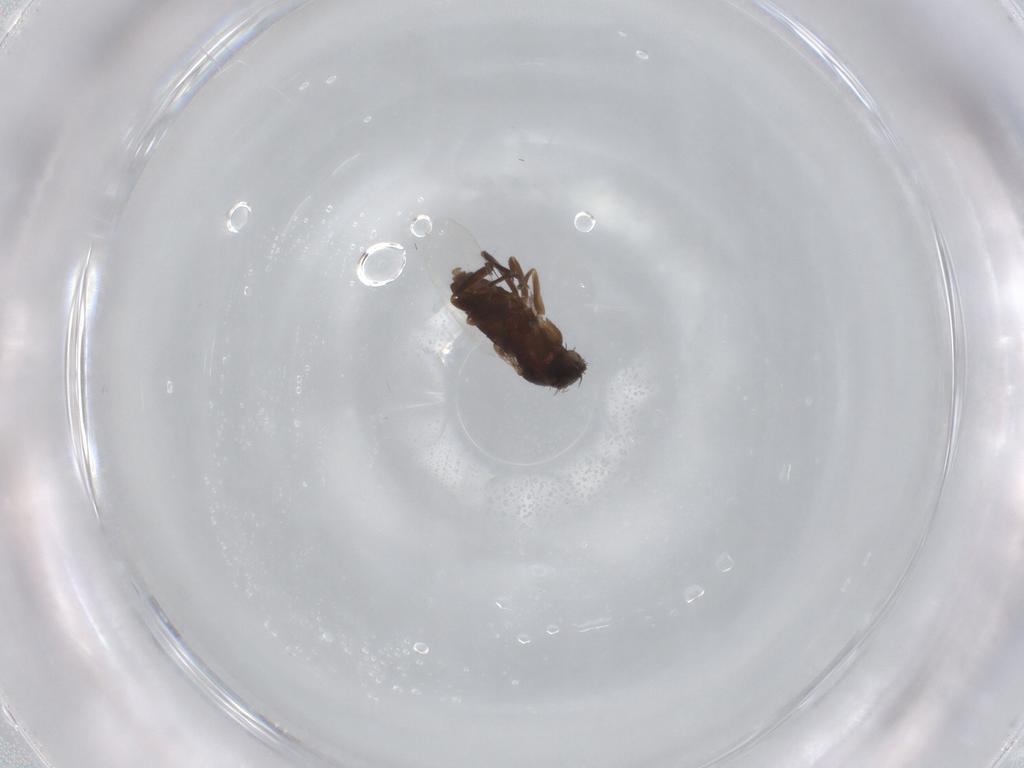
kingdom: Animalia
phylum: Arthropoda
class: Insecta
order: Diptera
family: Phoridae
